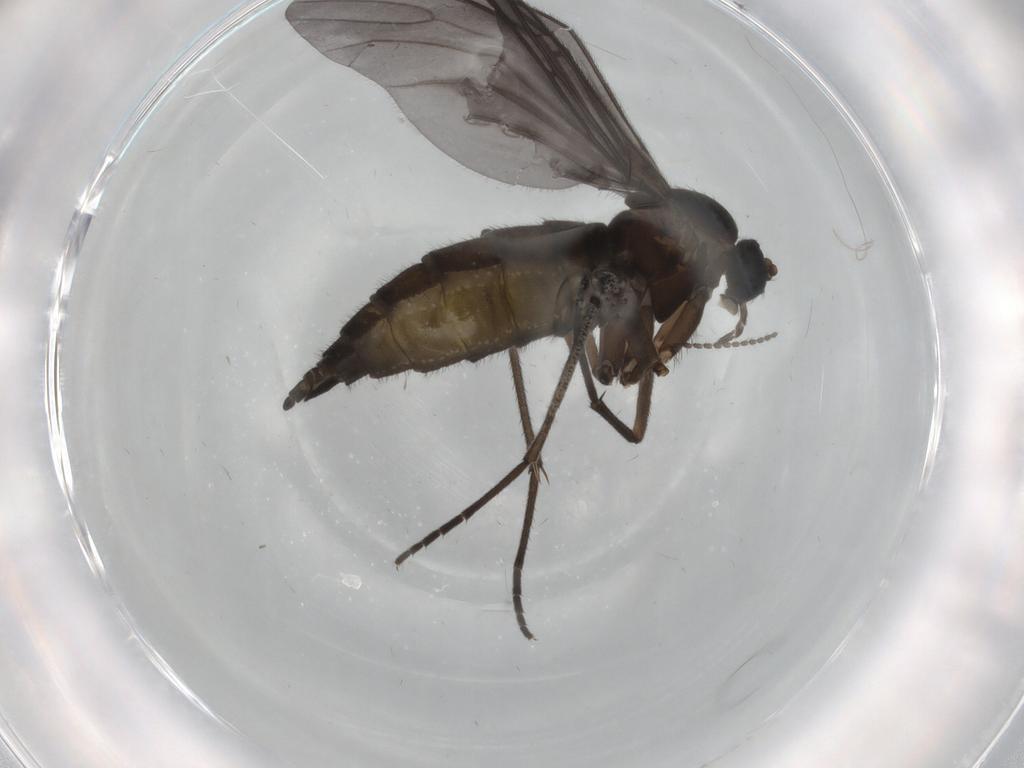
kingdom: Animalia
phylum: Arthropoda
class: Insecta
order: Diptera
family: Sciaridae
